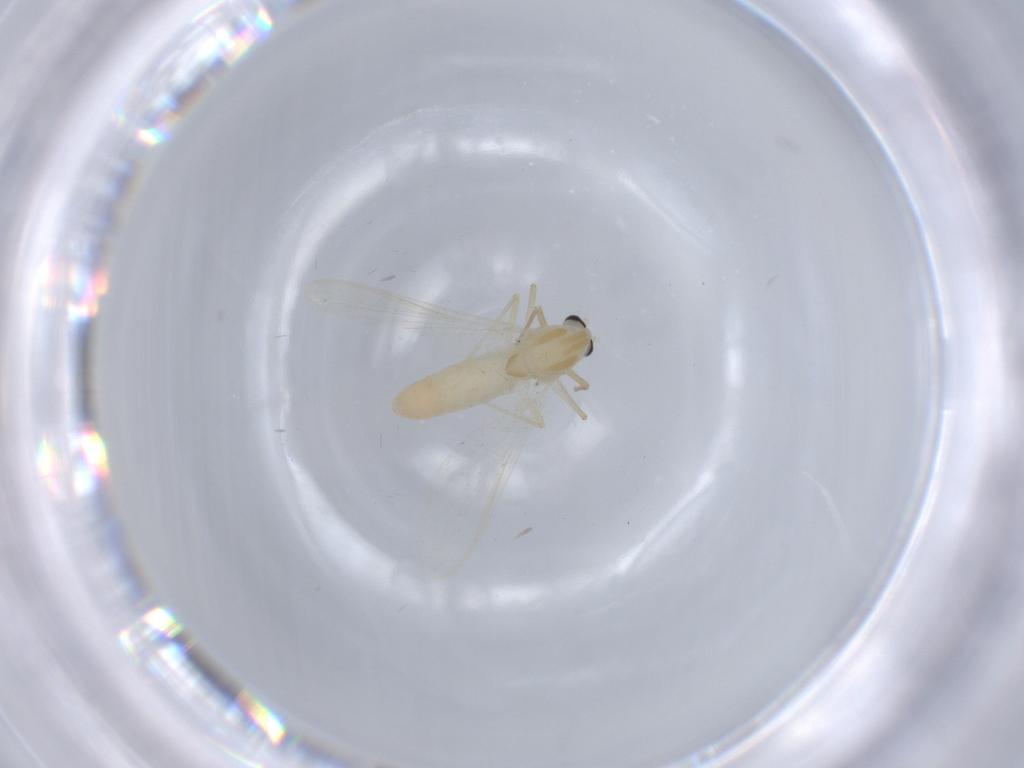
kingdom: Animalia
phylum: Arthropoda
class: Insecta
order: Diptera
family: Chironomidae
